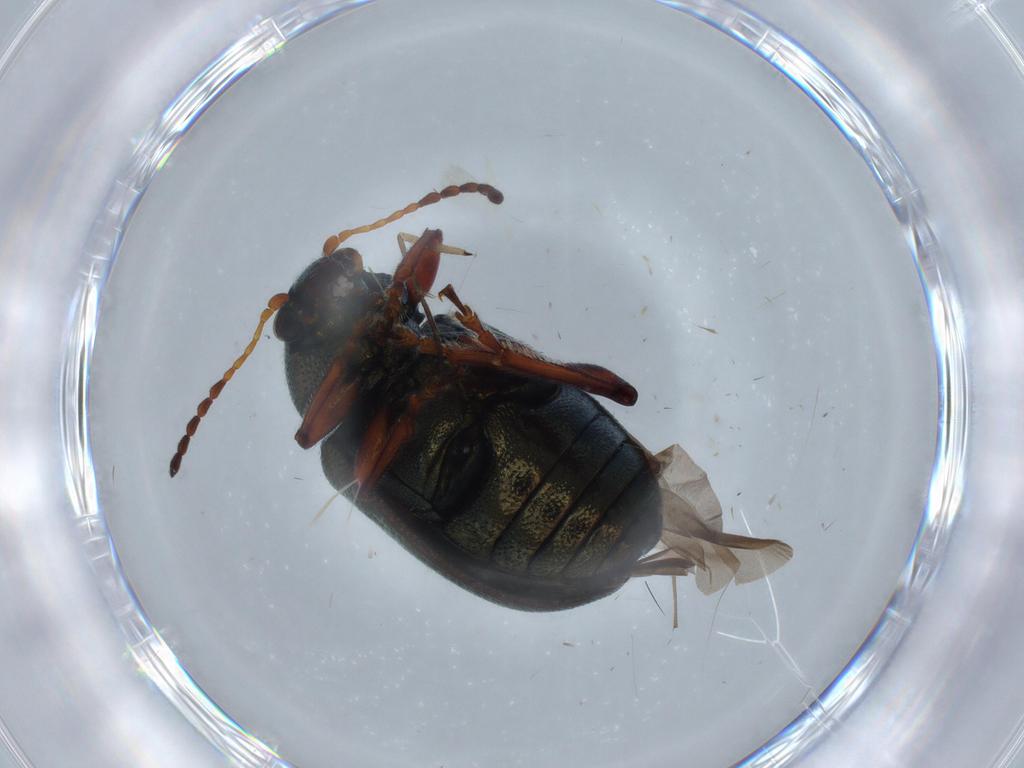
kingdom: Animalia
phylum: Arthropoda
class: Insecta
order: Coleoptera
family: Chrysomelidae
